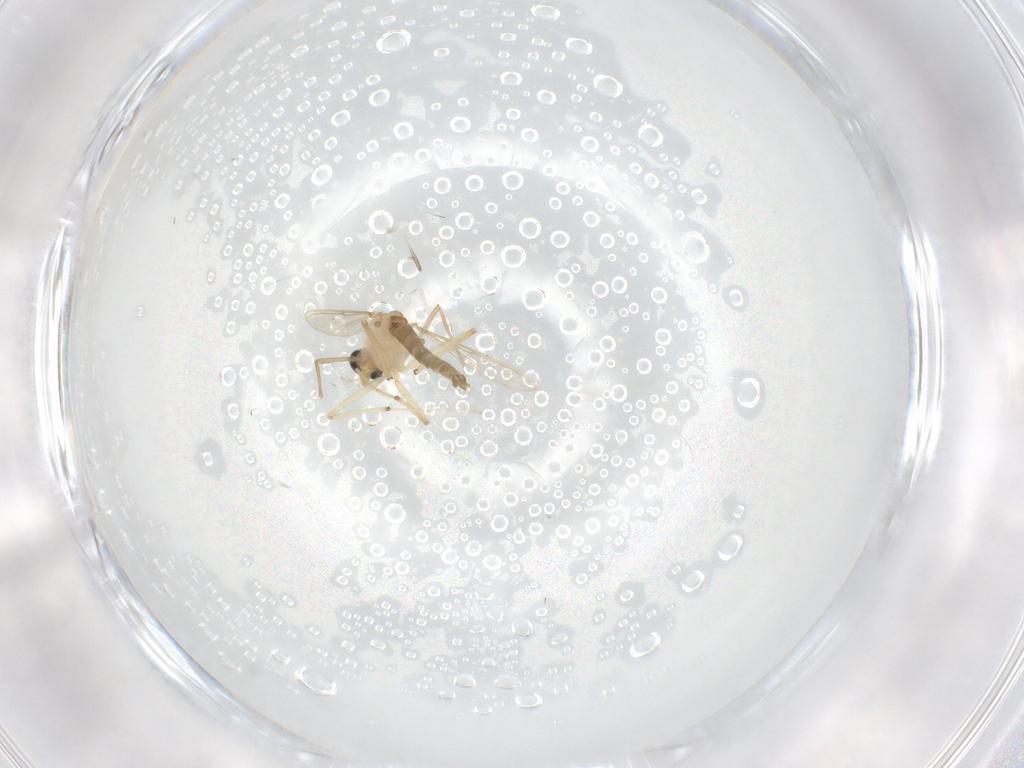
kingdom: Animalia
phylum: Arthropoda
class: Insecta
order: Diptera
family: Chironomidae
